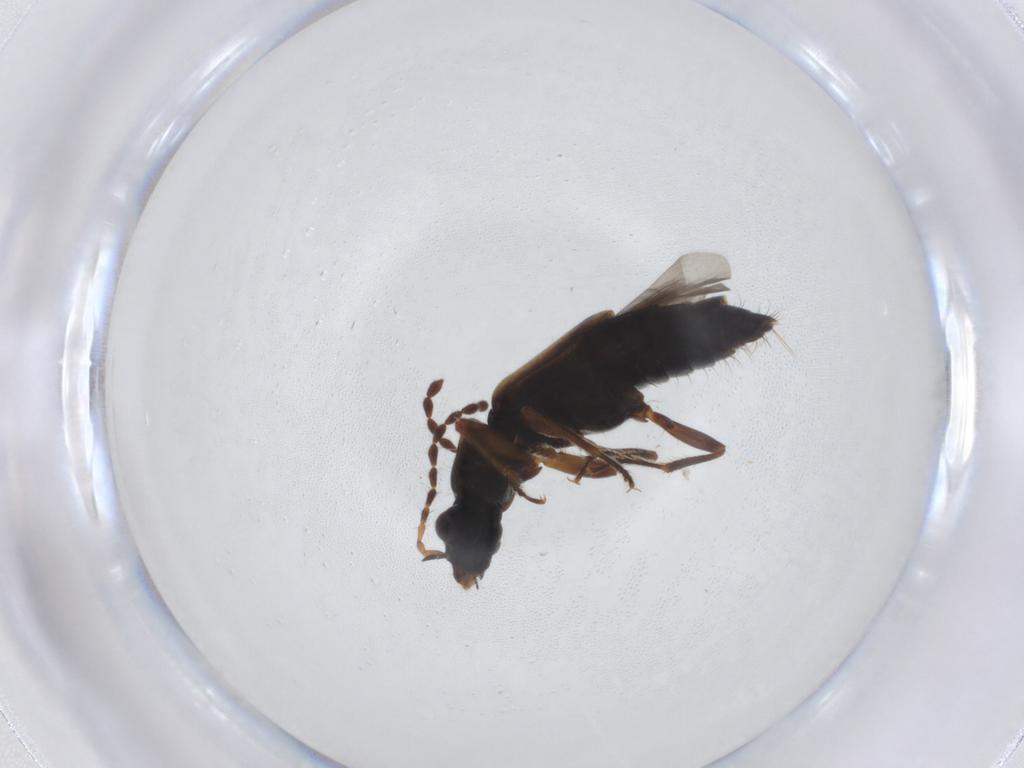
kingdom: Animalia
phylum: Arthropoda
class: Insecta
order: Coleoptera
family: Staphylinidae
